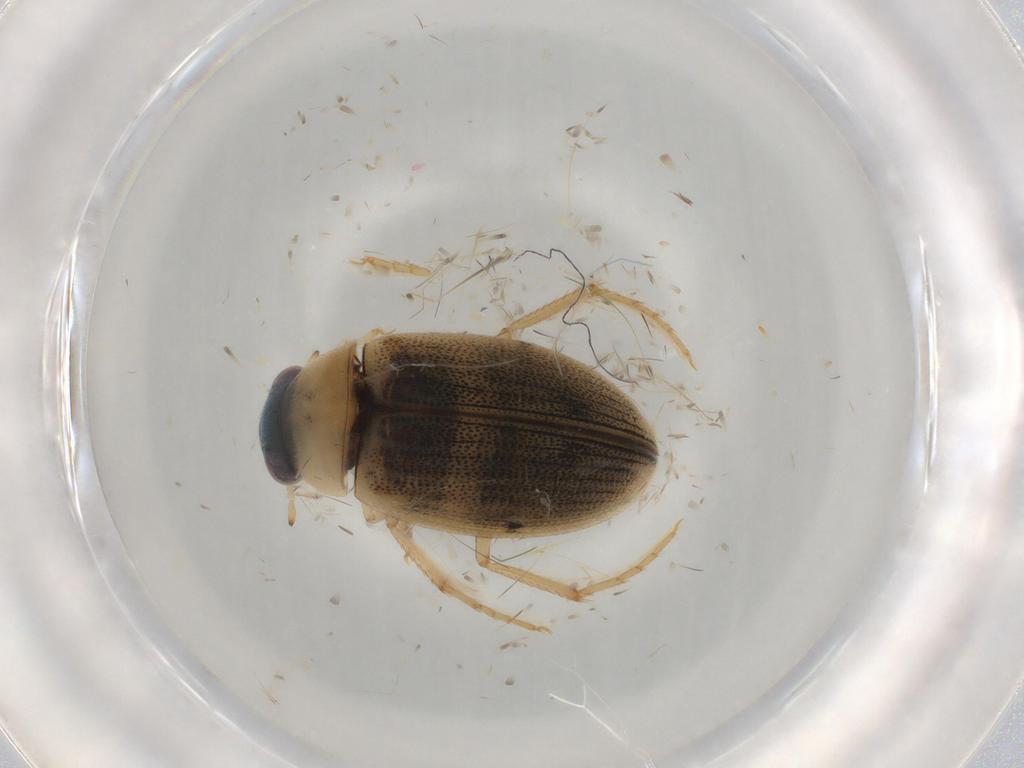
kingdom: Animalia
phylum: Arthropoda
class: Insecta
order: Coleoptera
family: Hydrophilidae
